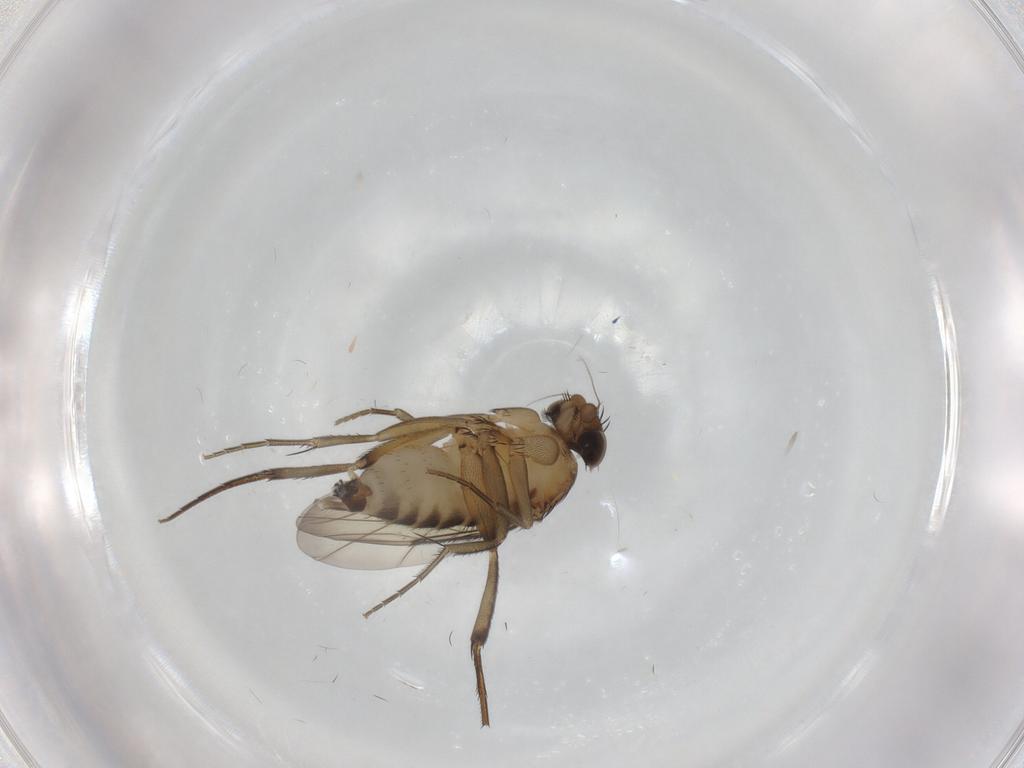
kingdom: Animalia
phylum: Arthropoda
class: Insecta
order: Diptera
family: Phoridae
